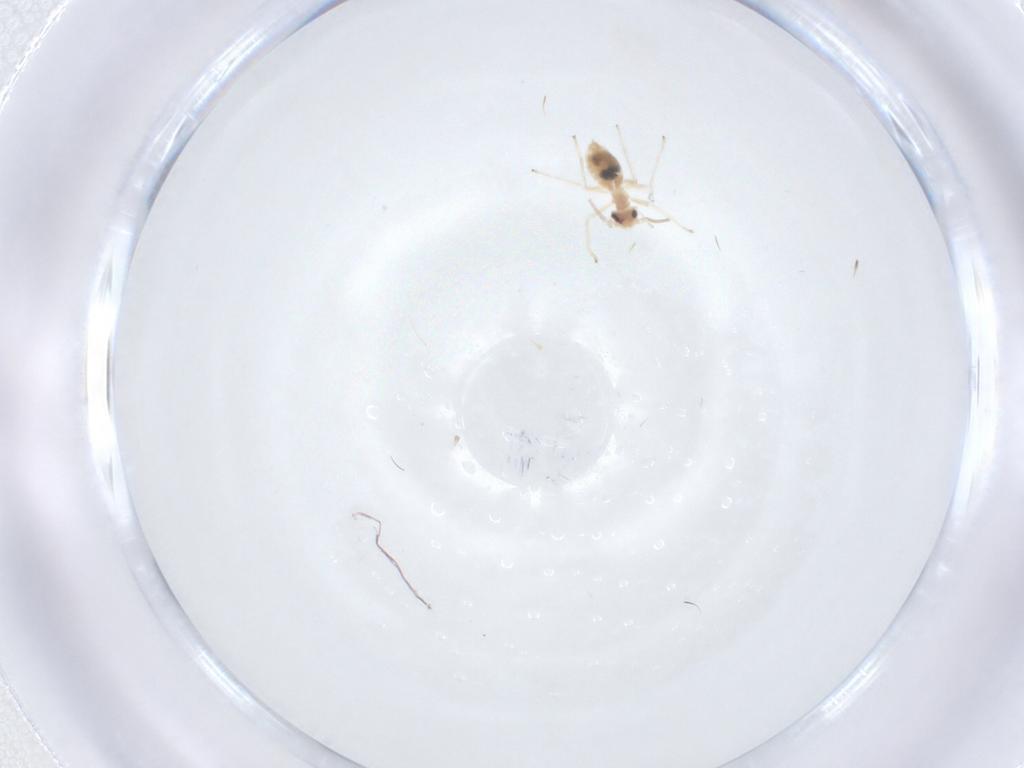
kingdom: Animalia
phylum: Arthropoda
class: Insecta
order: Psocodea
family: Caeciliusidae
